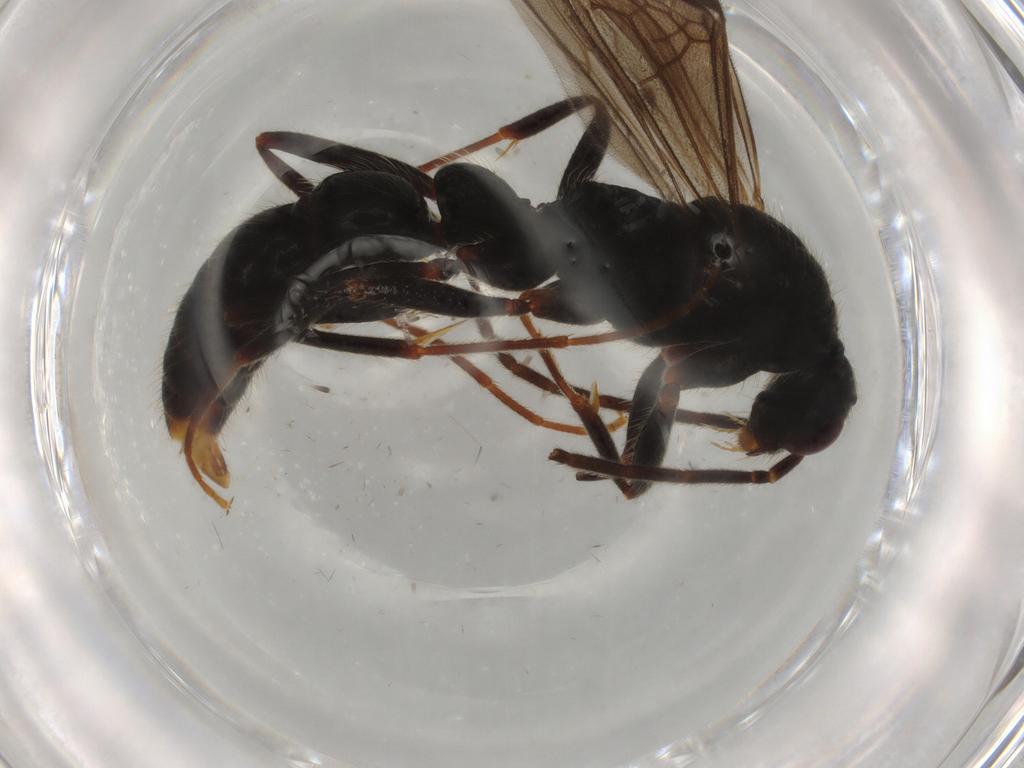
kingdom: Animalia
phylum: Arthropoda
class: Insecta
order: Hymenoptera
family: Formicidae
